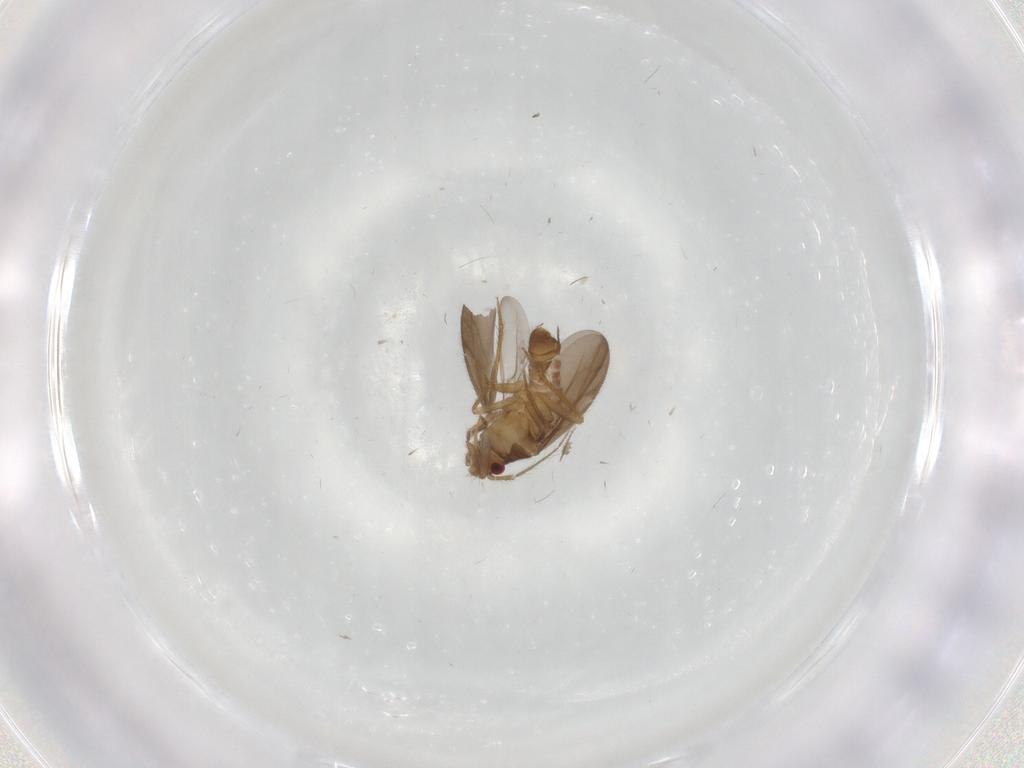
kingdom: Animalia
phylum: Arthropoda
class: Insecta
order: Hemiptera
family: Ceratocombidae
